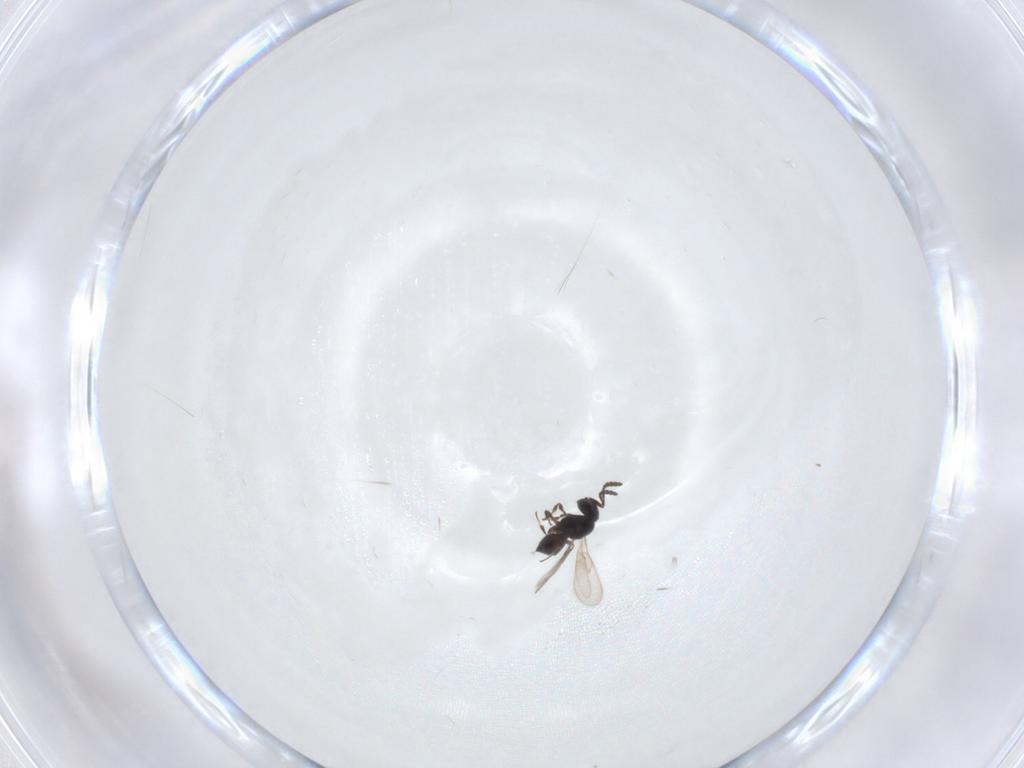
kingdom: Animalia
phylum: Arthropoda
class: Insecta
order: Hymenoptera
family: Scelionidae
